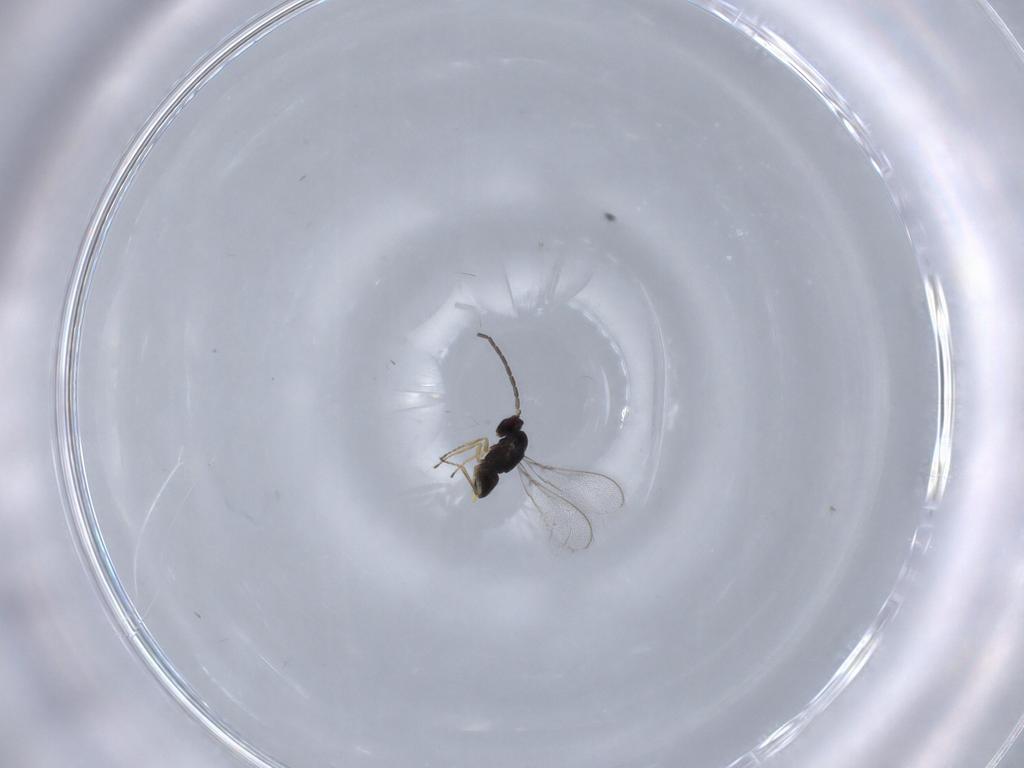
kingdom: Animalia
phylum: Arthropoda
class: Insecta
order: Hymenoptera
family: Mymaridae
